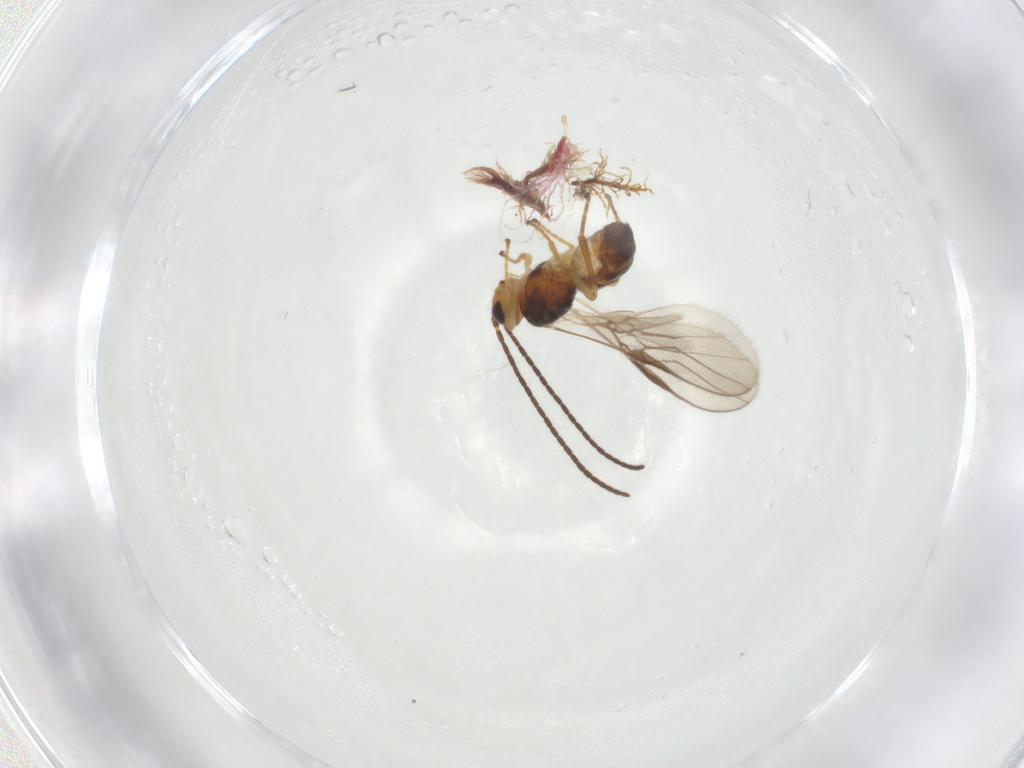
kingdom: Animalia
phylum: Arthropoda
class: Insecta
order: Hymenoptera
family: Braconidae
